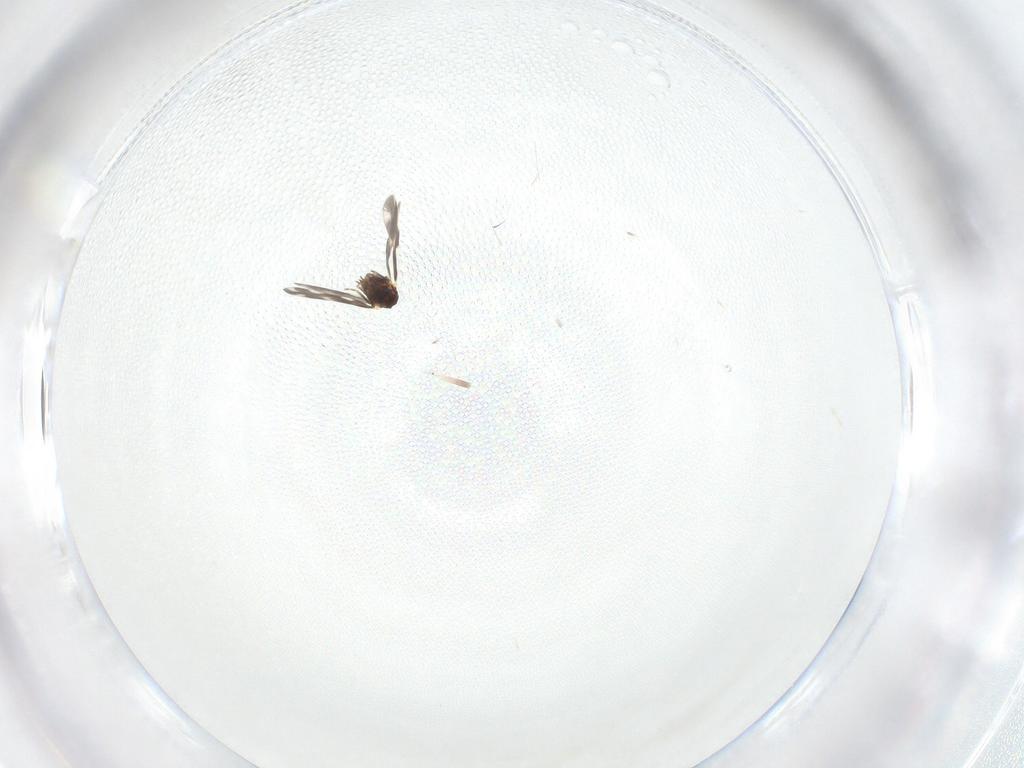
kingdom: Animalia
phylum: Arthropoda
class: Insecta
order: Hemiptera
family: Aleyrodidae
